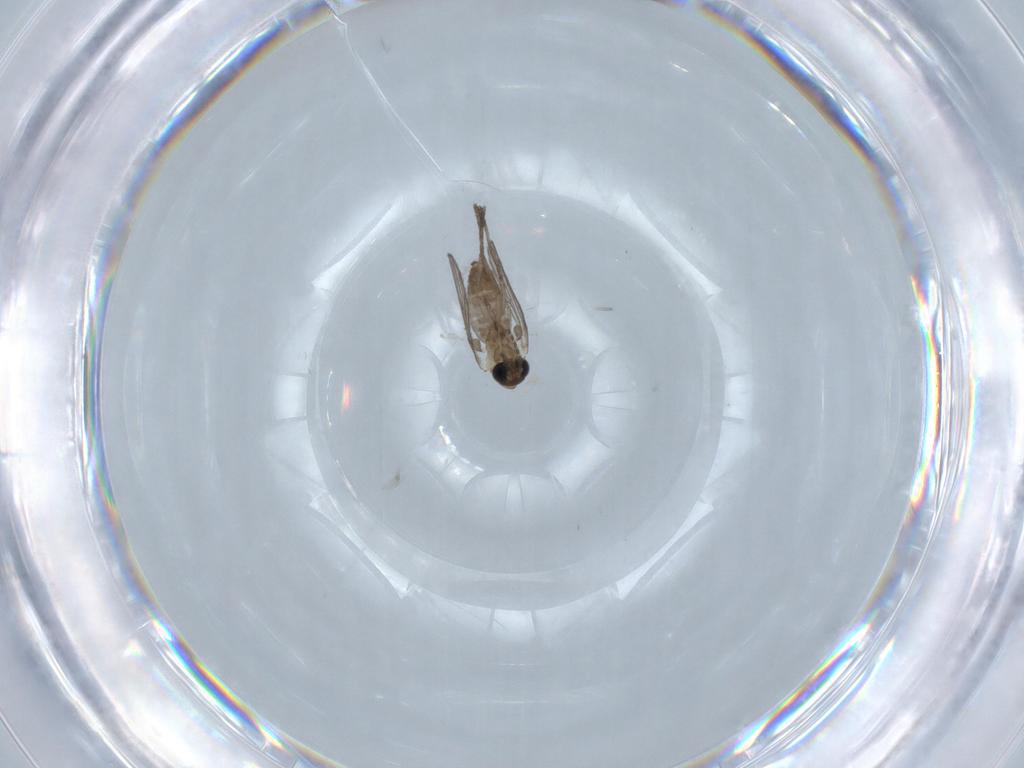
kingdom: Animalia
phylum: Arthropoda
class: Insecta
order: Diptera
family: Psychodidae
